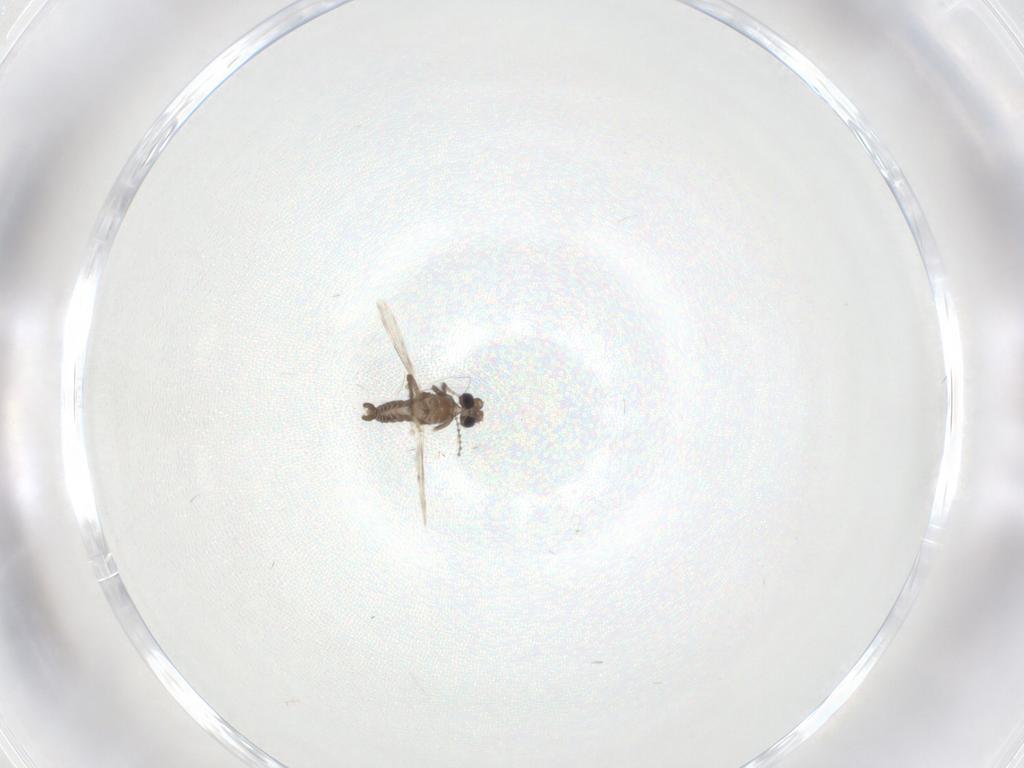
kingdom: Animalia
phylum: Arthropoda
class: Insecta
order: Diptera
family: Ceratopogonidae
